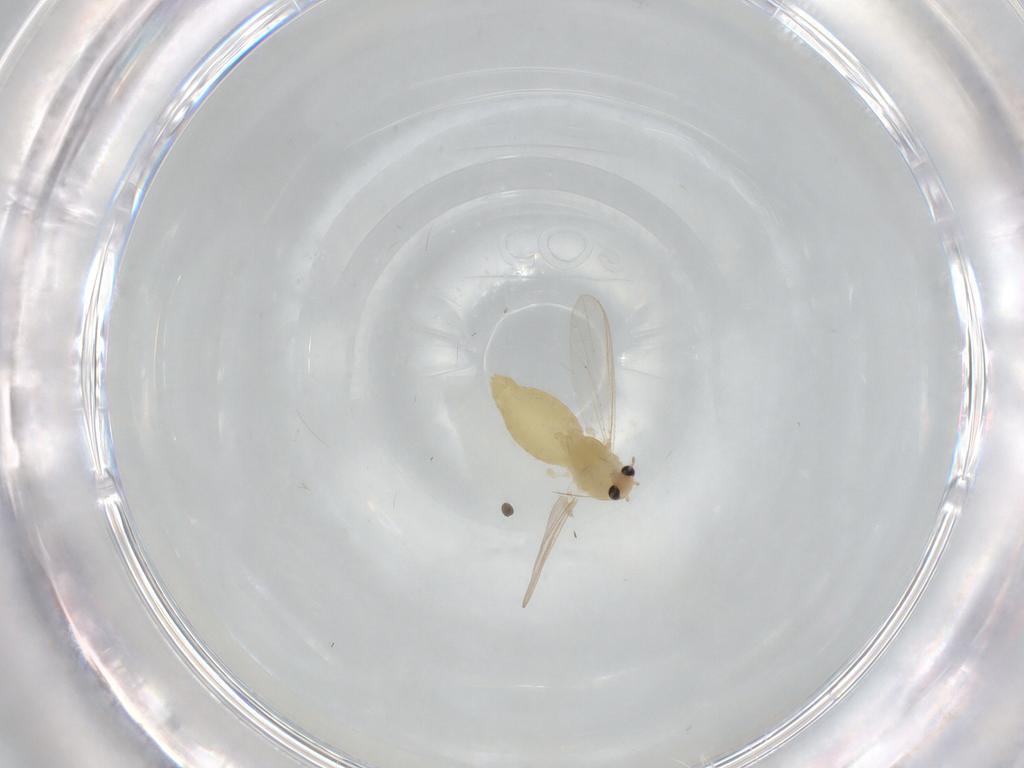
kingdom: Animalia
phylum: Arthropoda
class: Insecta
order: Diptera
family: Chironomidae
